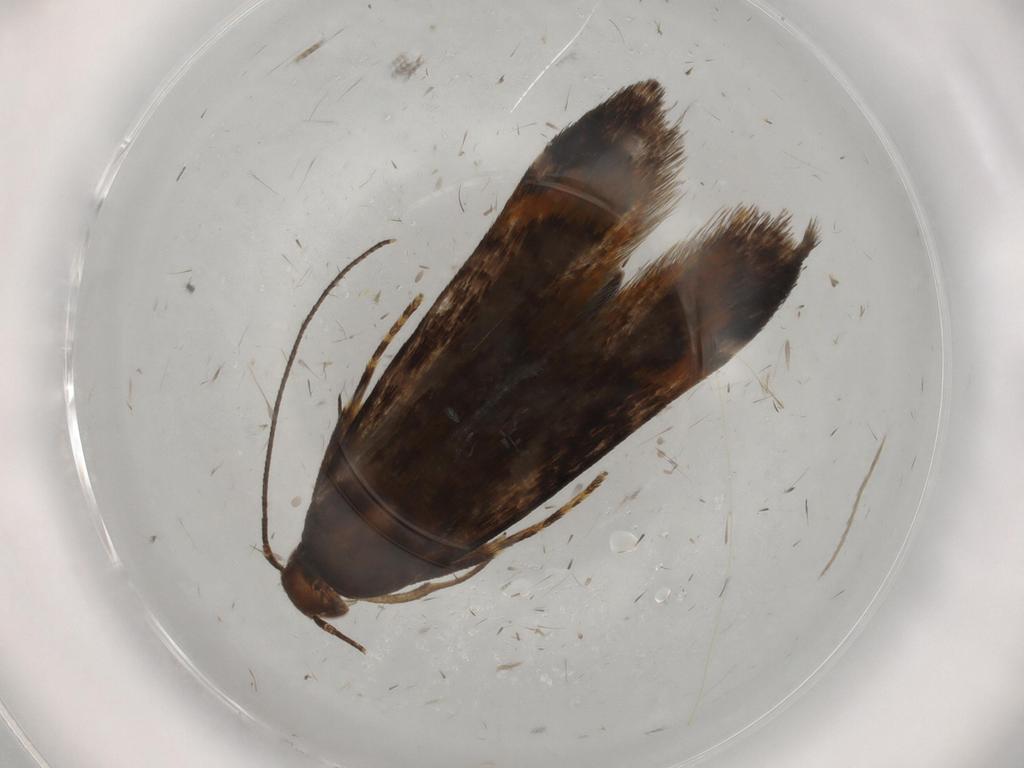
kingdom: Animalia
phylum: Arthropoda
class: Insecta
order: Lepidoptera
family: Gelechiidae
